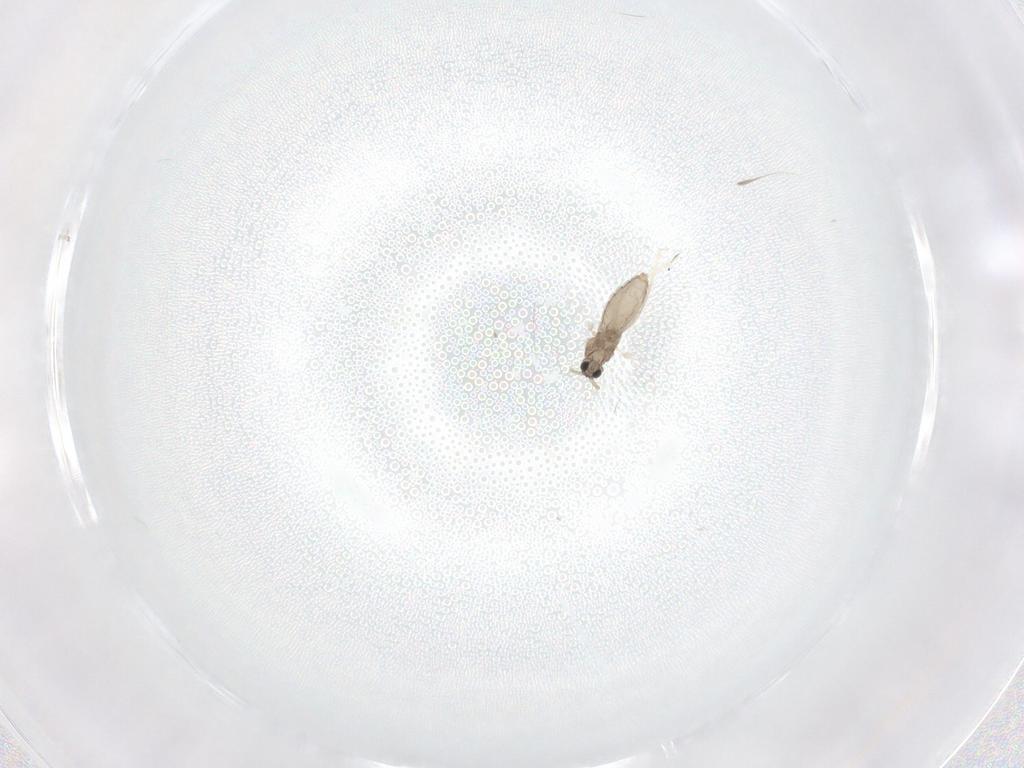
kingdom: Animalia
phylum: Arthropoda
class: Insecta
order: Diptera
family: Cecidomyiidae
